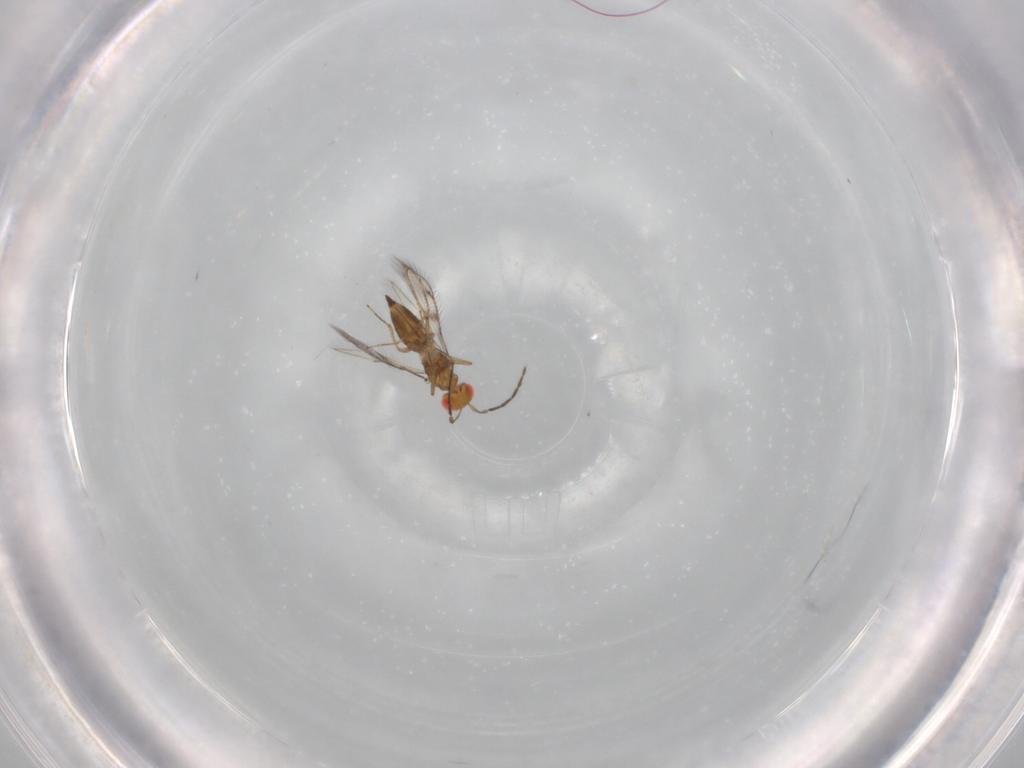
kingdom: Animalia
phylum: Arthropoda
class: Insecta
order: Hymenoptera
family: Eulophidae
